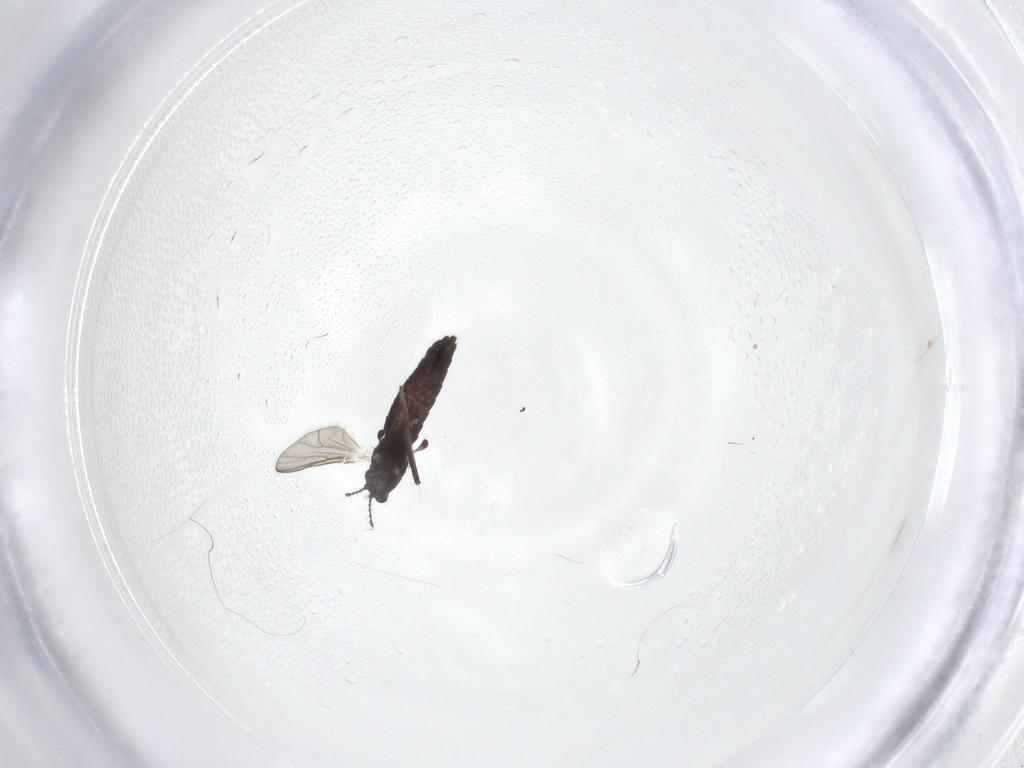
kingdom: Animalia
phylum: Arthropoda
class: Insecta
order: Diptera
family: Chironomidae
